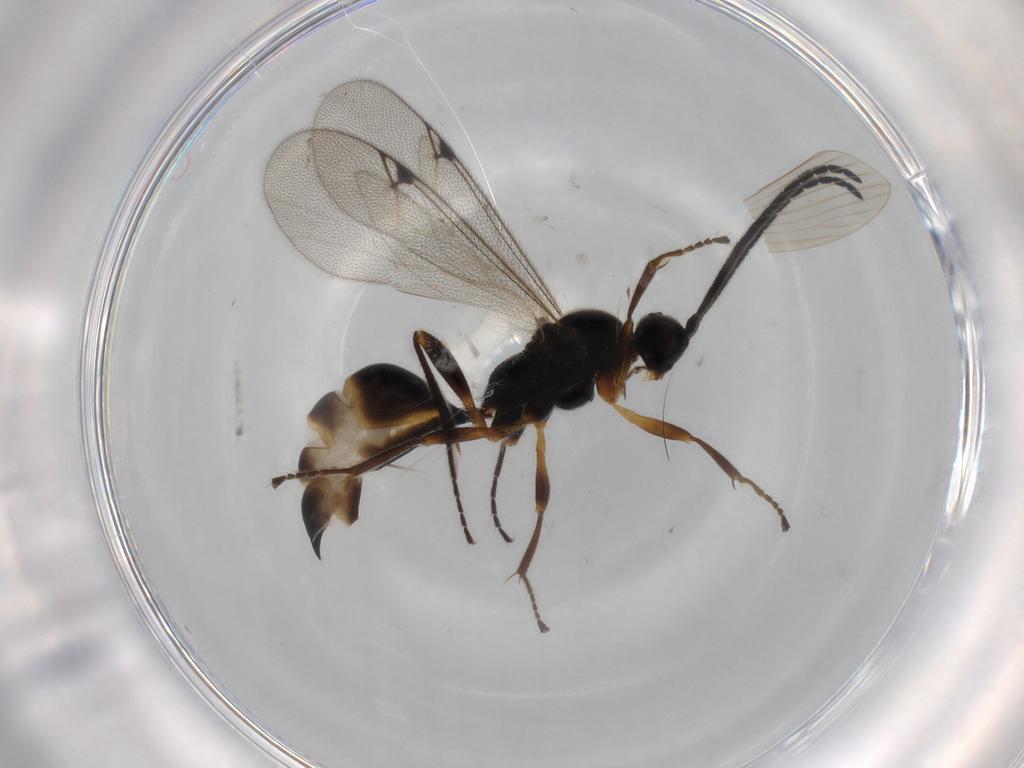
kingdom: Animalia
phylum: Arthropoda
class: Insecta
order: Hymenoptera
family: Proctotrupidae
